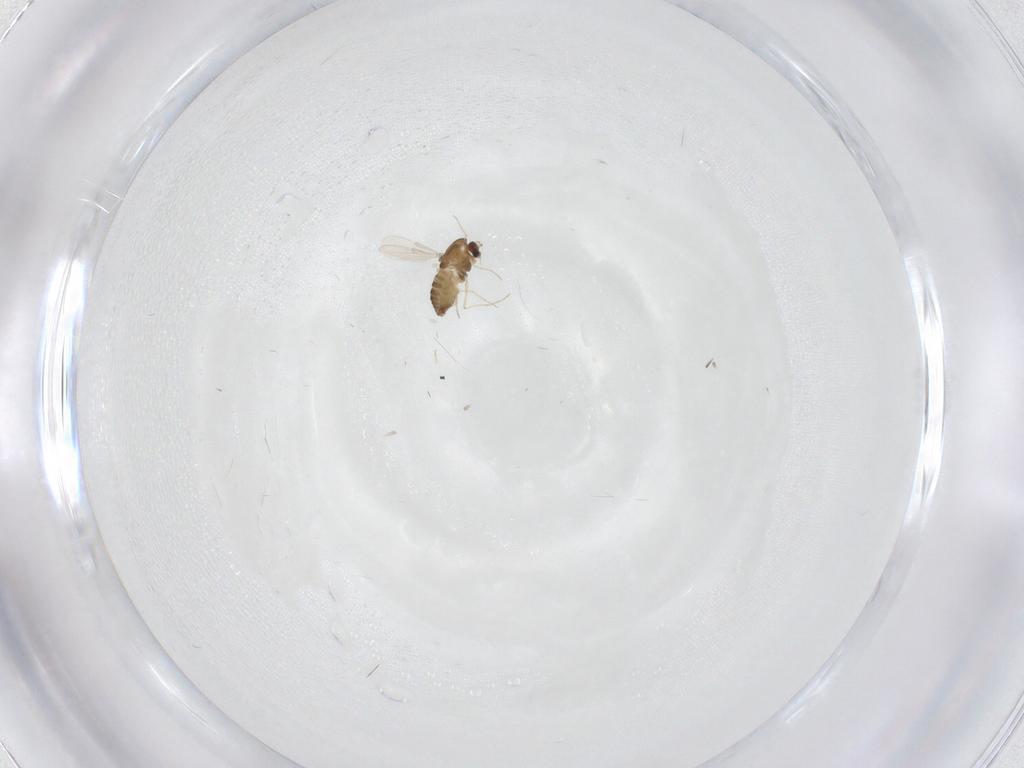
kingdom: Animalia
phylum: Arthropoda
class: Insecta
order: Diptera
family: Chironomidae
